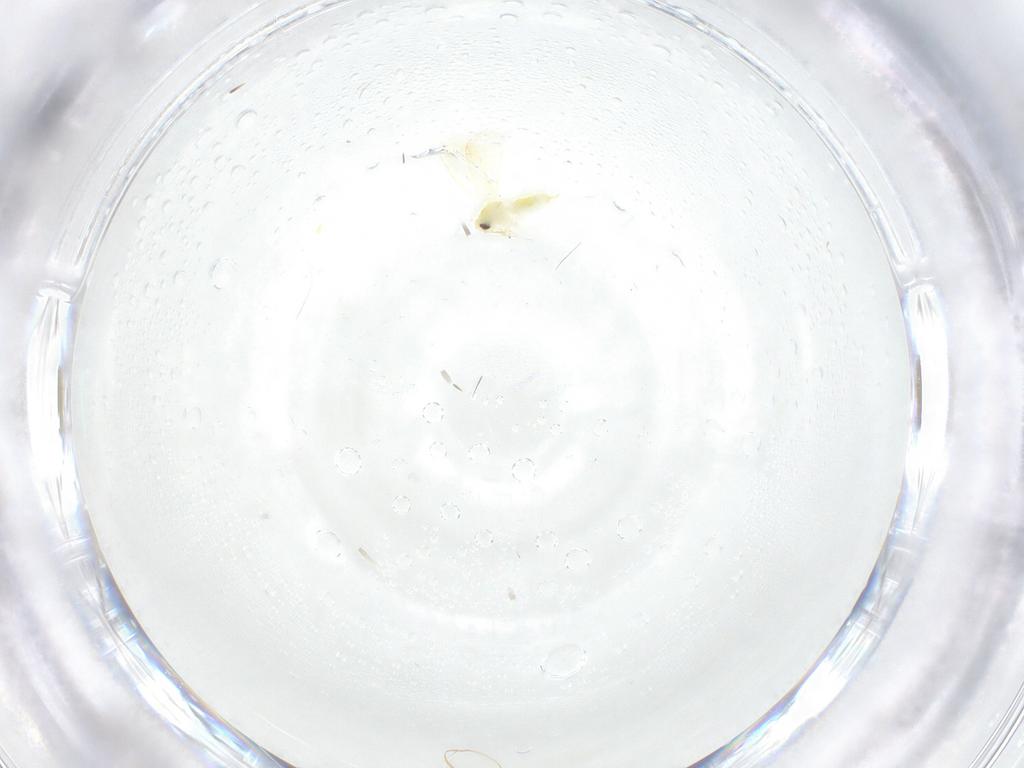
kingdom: Animalia
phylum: Arthropoda
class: Insecta
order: Hemiptera
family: Aleyrodidae
